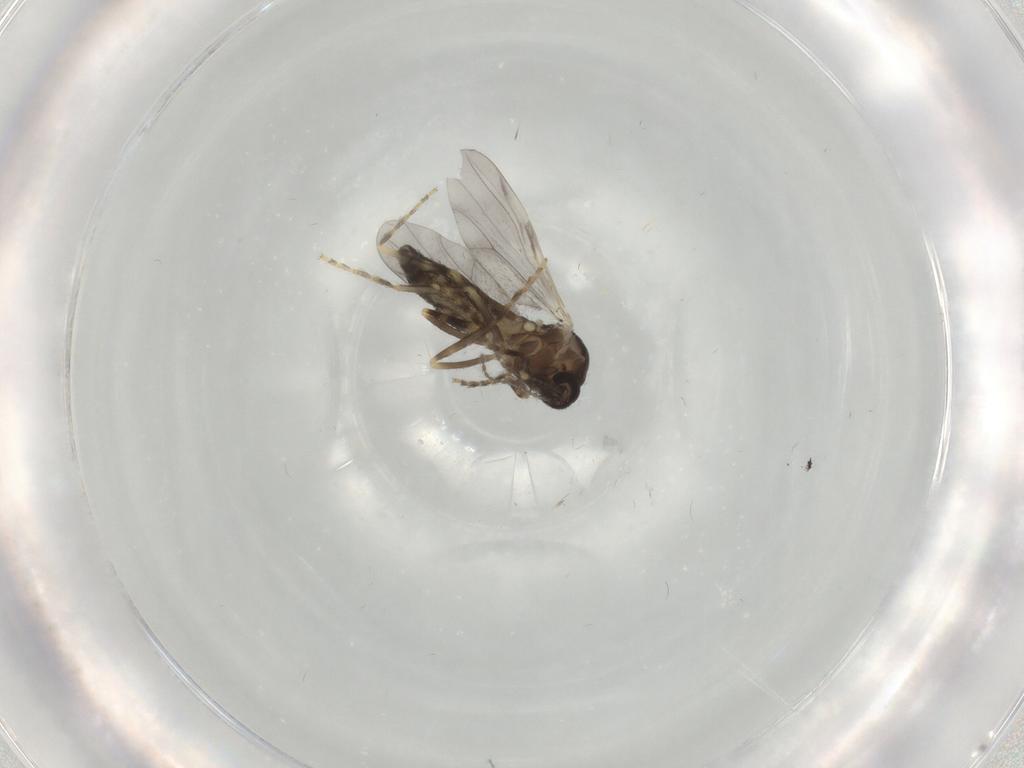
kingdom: Animalia
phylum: Arthropoda
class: Insecta
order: Diptera
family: Ceratopogonidae
